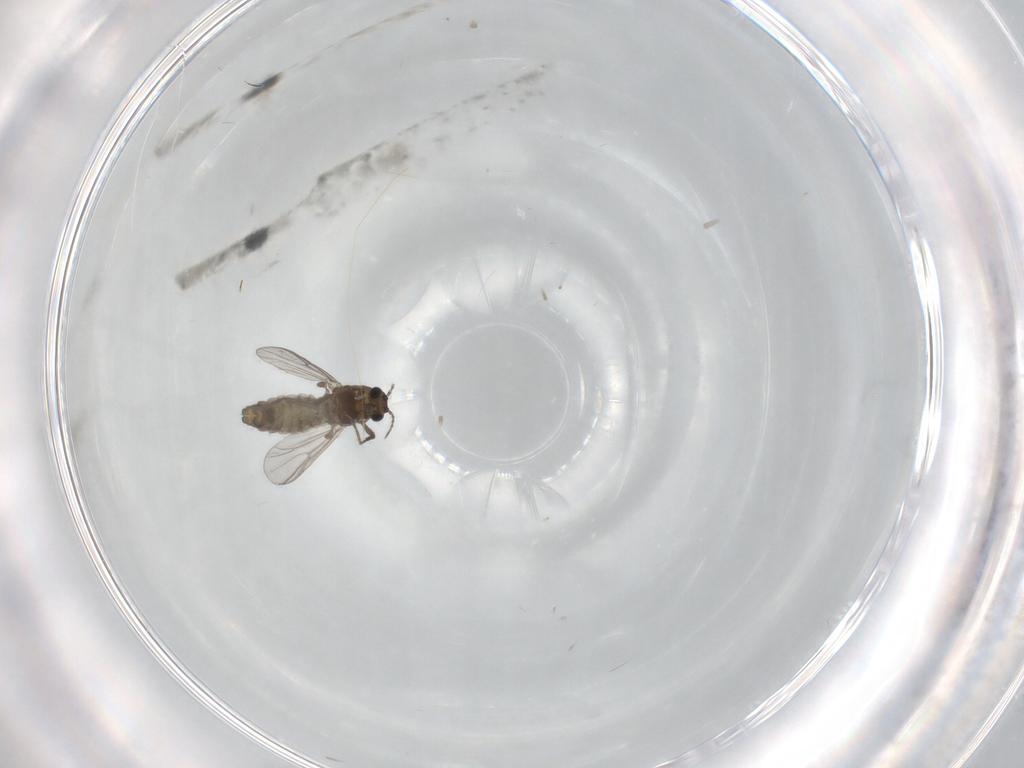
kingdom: Animalia
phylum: Arthropoda
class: Insecta
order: Diptera
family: Chironomidae
